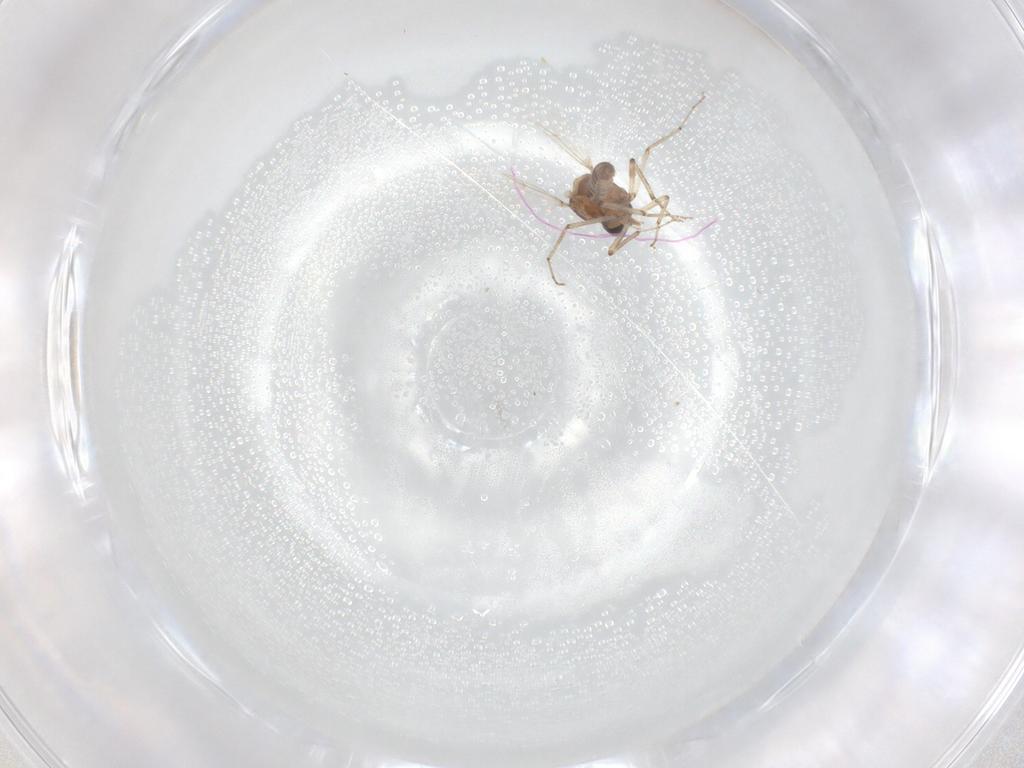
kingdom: Animalia
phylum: Arthropoda
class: Insecta
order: Diptera
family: Ceratopogonidae
